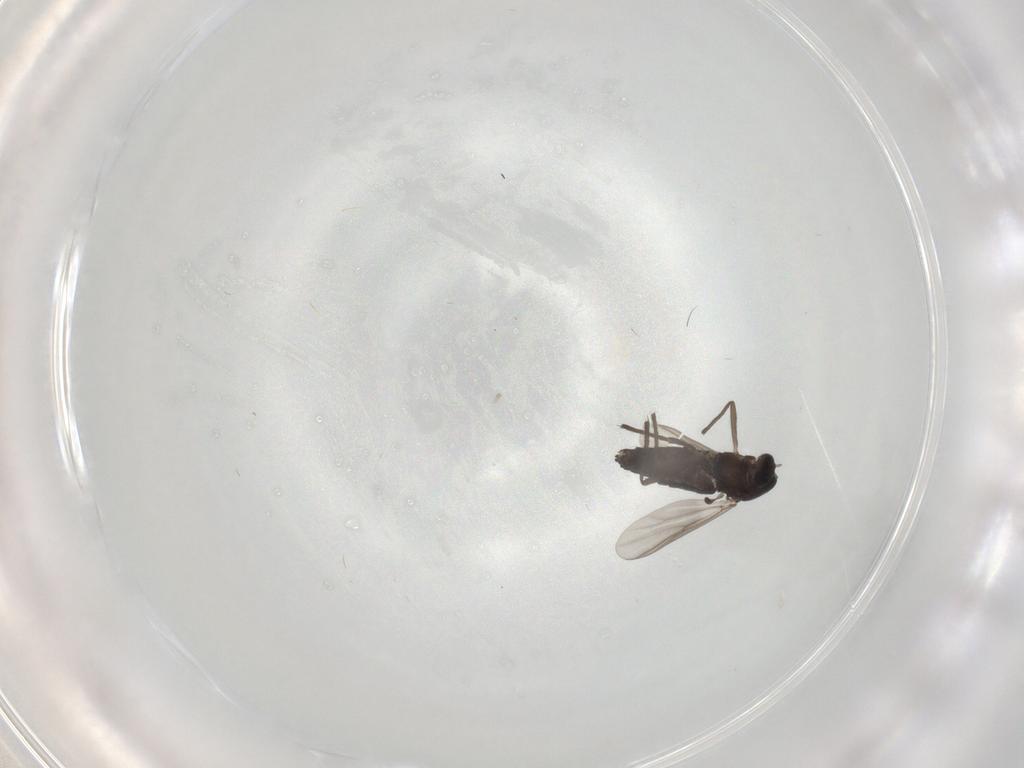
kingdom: Animalia
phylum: Arthropoda
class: Insecta
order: Diptera
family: Chironomidae
